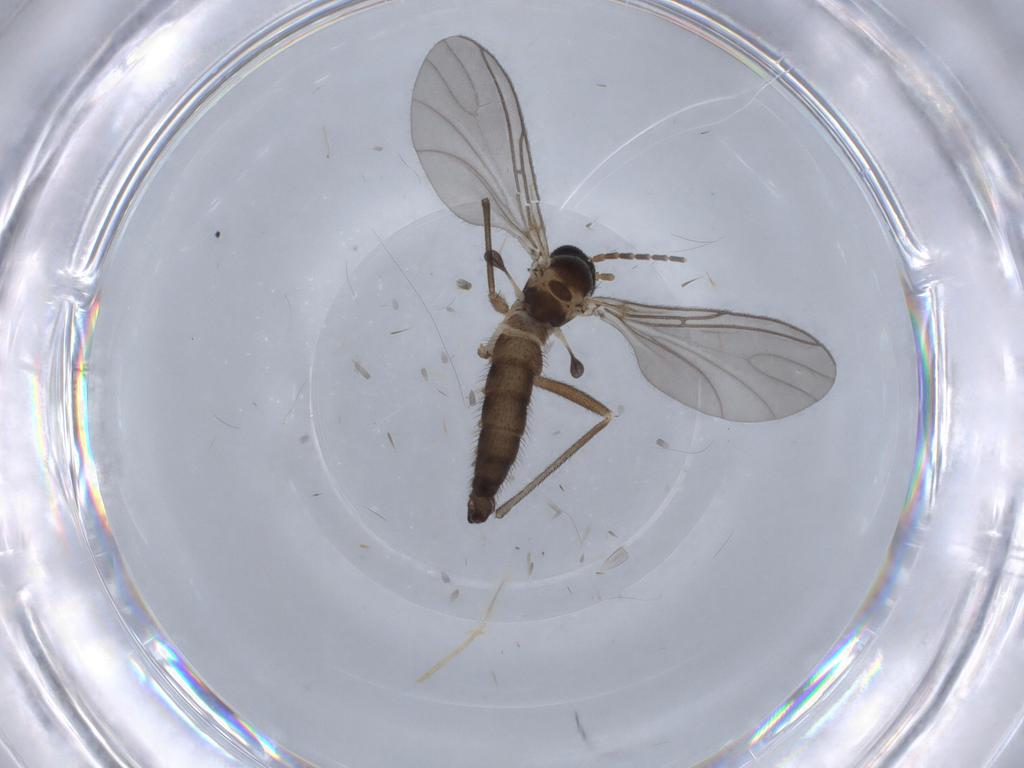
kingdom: Animalia
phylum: Arthropoda
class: Insecta
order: Diptera
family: Sciaridae
